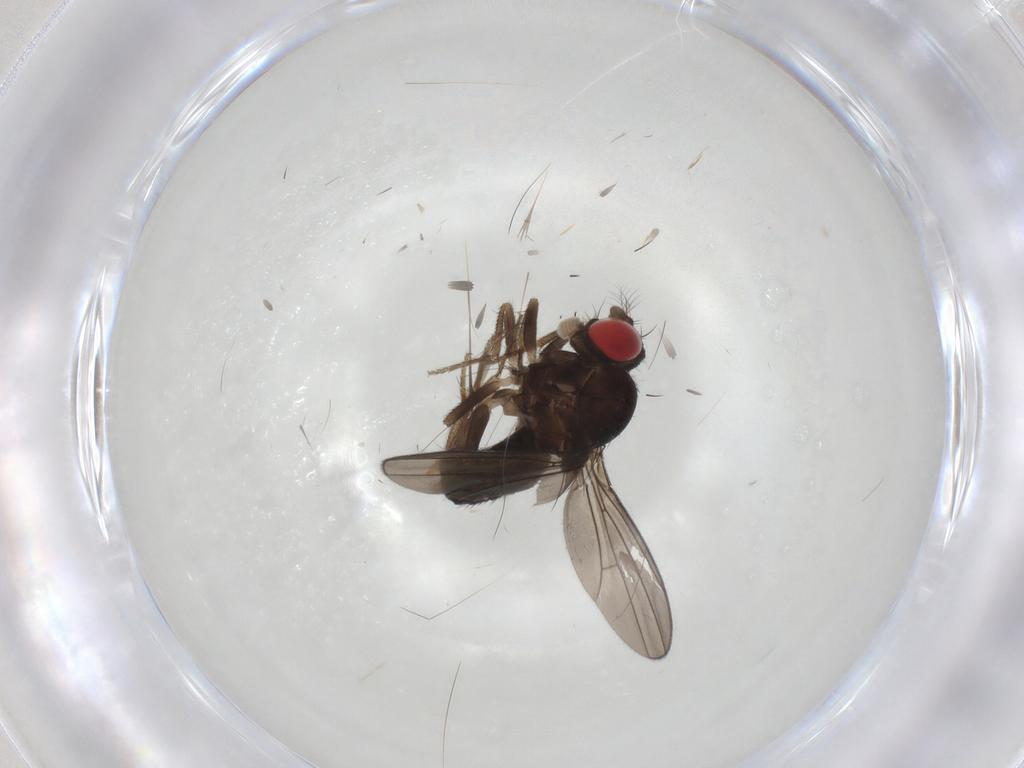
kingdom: Animalia
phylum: Arthropoda
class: Insecta
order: Diptera
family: Drosophilidae
